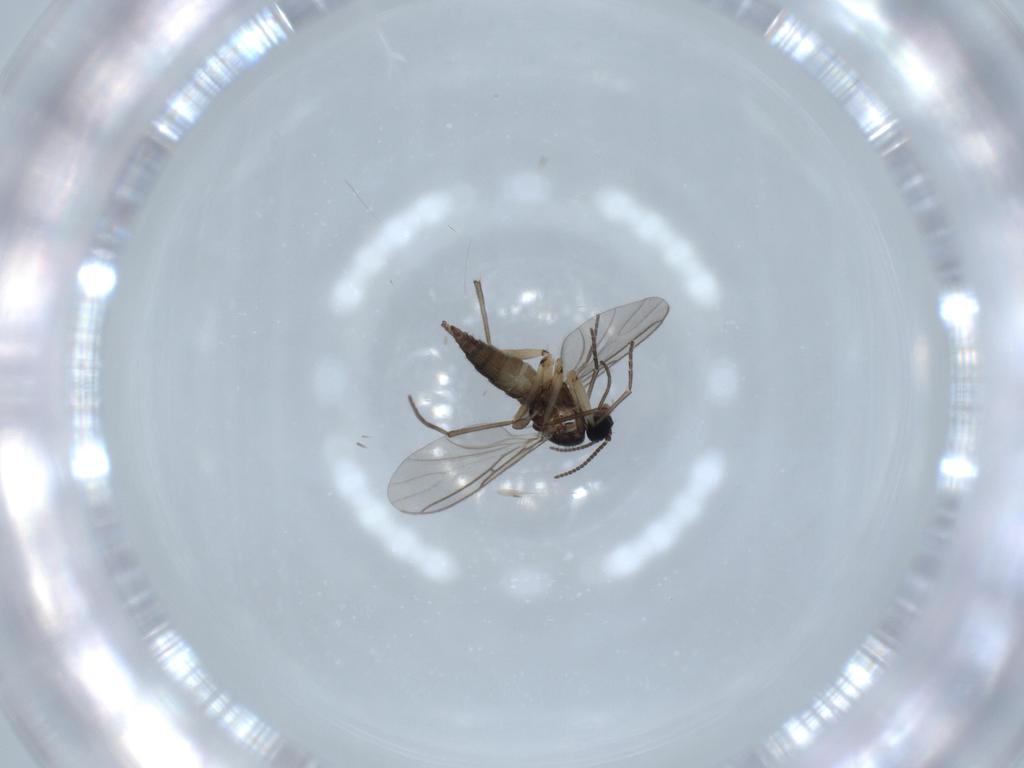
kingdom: Animalia
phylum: Arthropoda
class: Insecta
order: Diptera
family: Sciaridae
